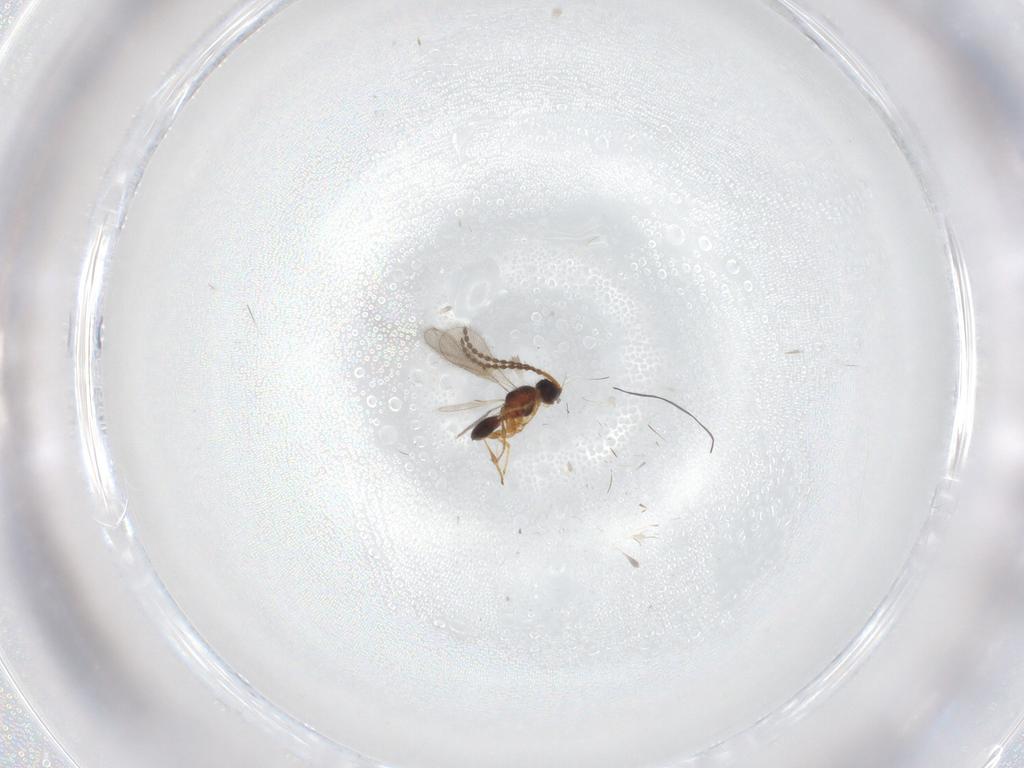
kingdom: Animalia
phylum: Arthropoda
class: Insecta
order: Hymenoptera
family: Diapriidae
